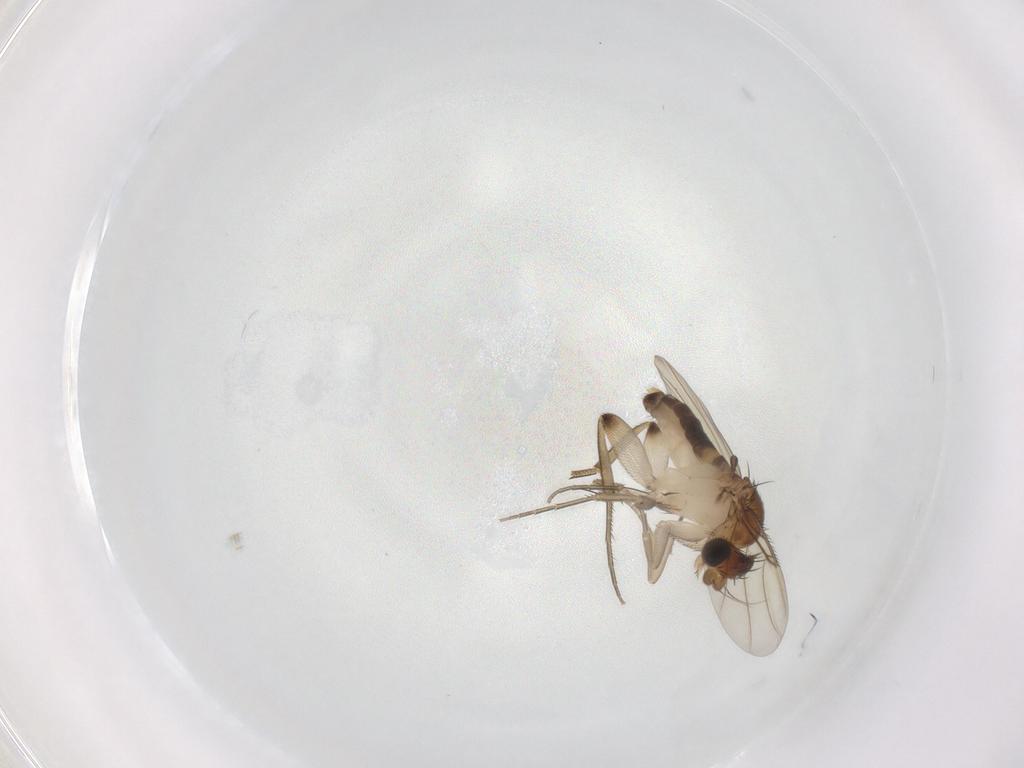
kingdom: Animalia
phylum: Arthropoda
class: Insecta
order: Diptera
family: Phoridae
